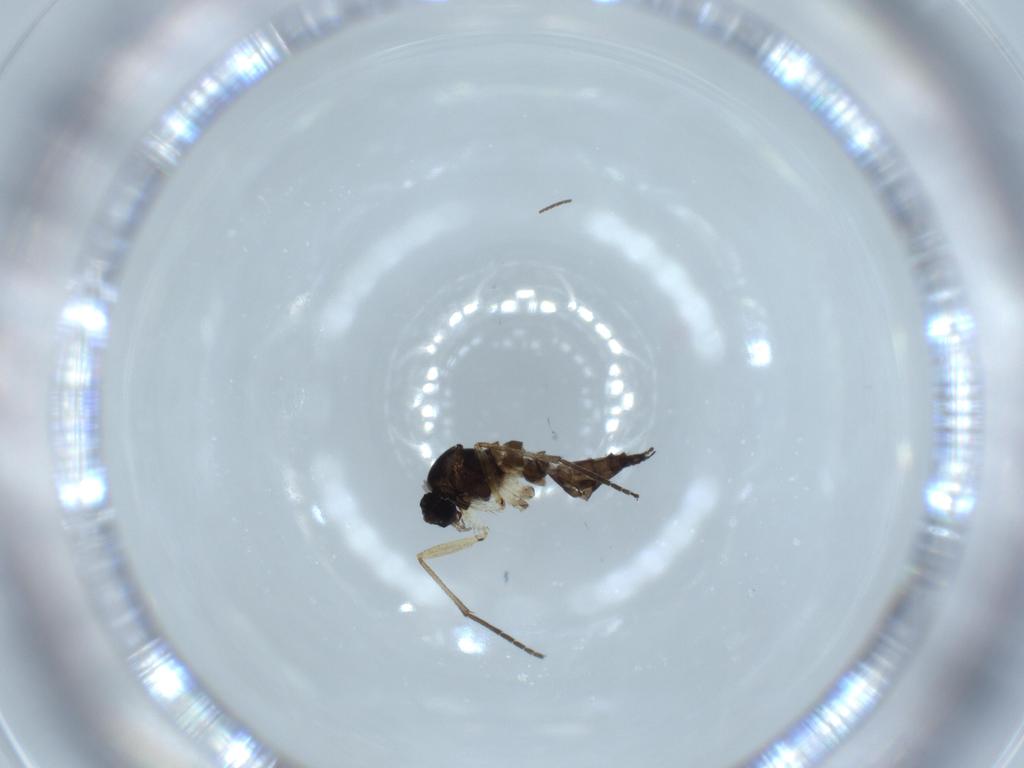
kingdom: Animalia
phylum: Arthropoda
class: Insecta
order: Diptera
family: Sciaridae
